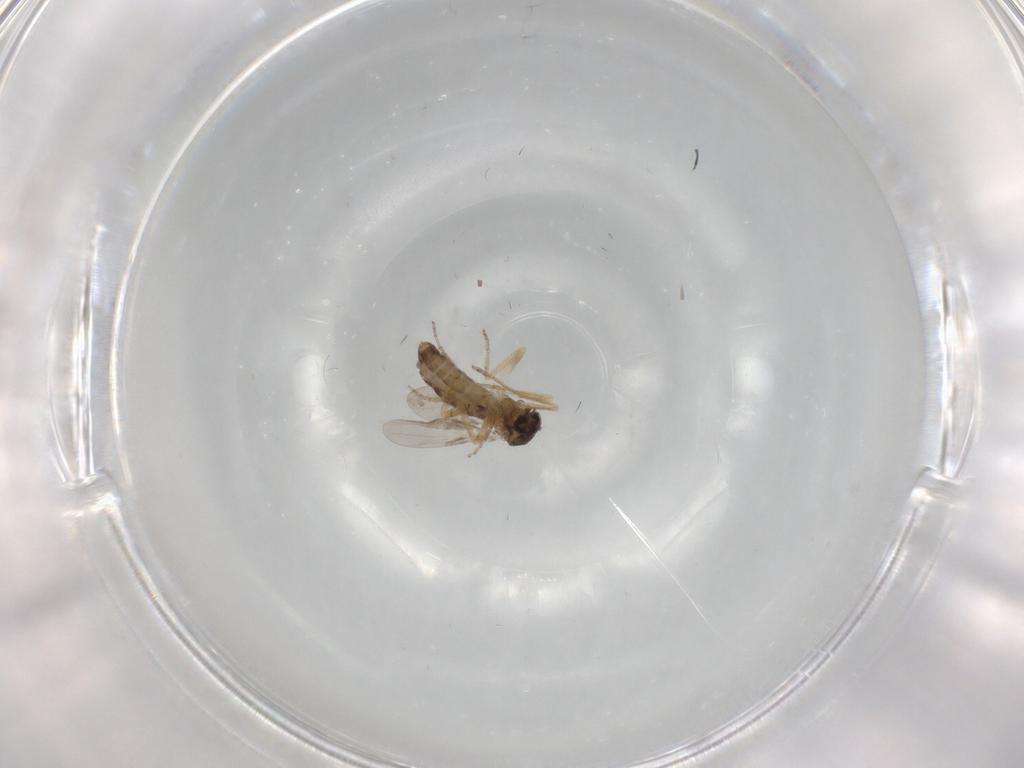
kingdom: Animalia
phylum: Arthropoda
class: Insecta
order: Diptera
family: Ceratopogonidae
